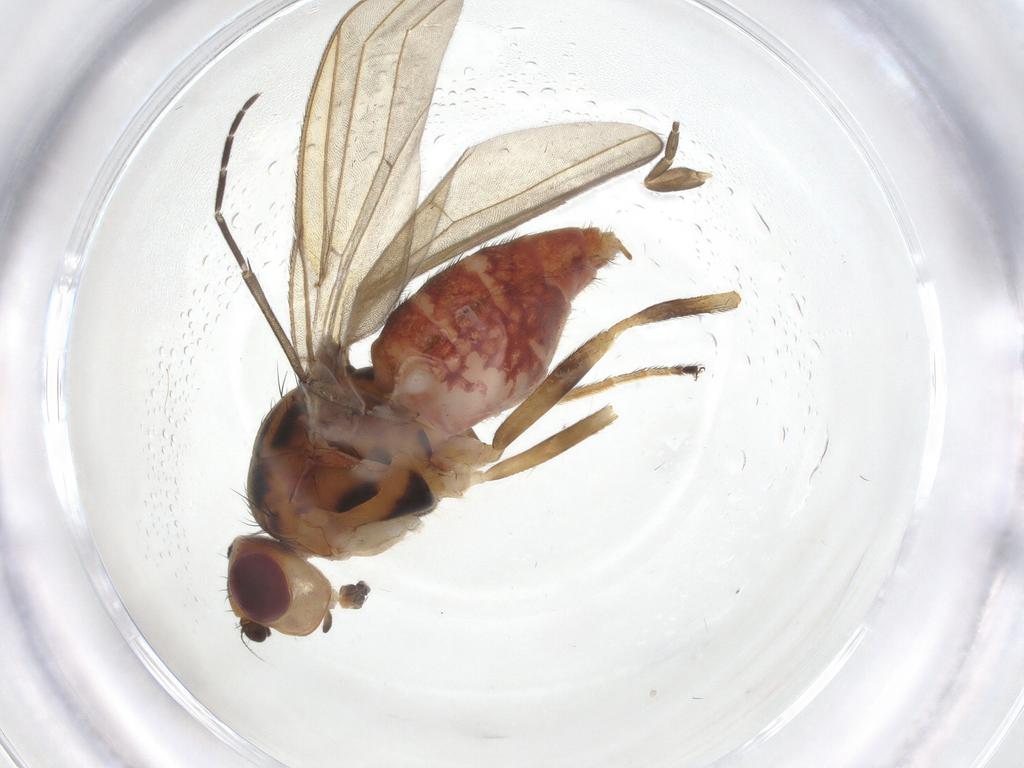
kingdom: Animalia
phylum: Arthropoda
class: Insecta
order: Diptera
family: Chloropidae
